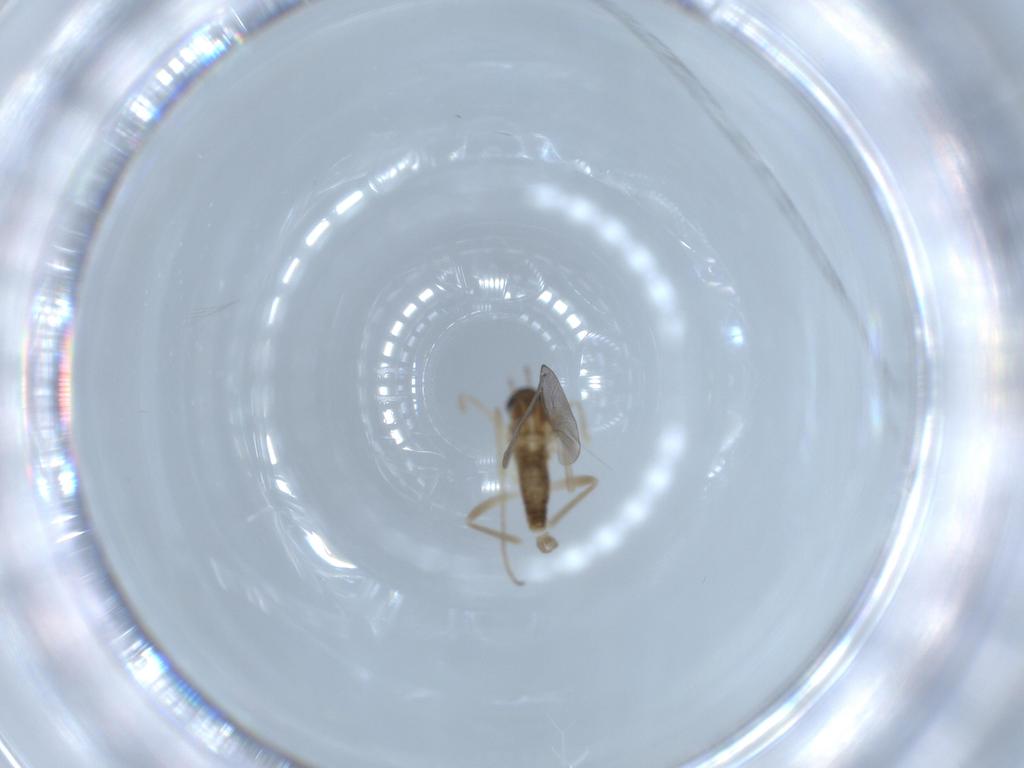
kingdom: Animalia
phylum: Arthropoda
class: Insecta
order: Diptera
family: Cecidomyiidae
